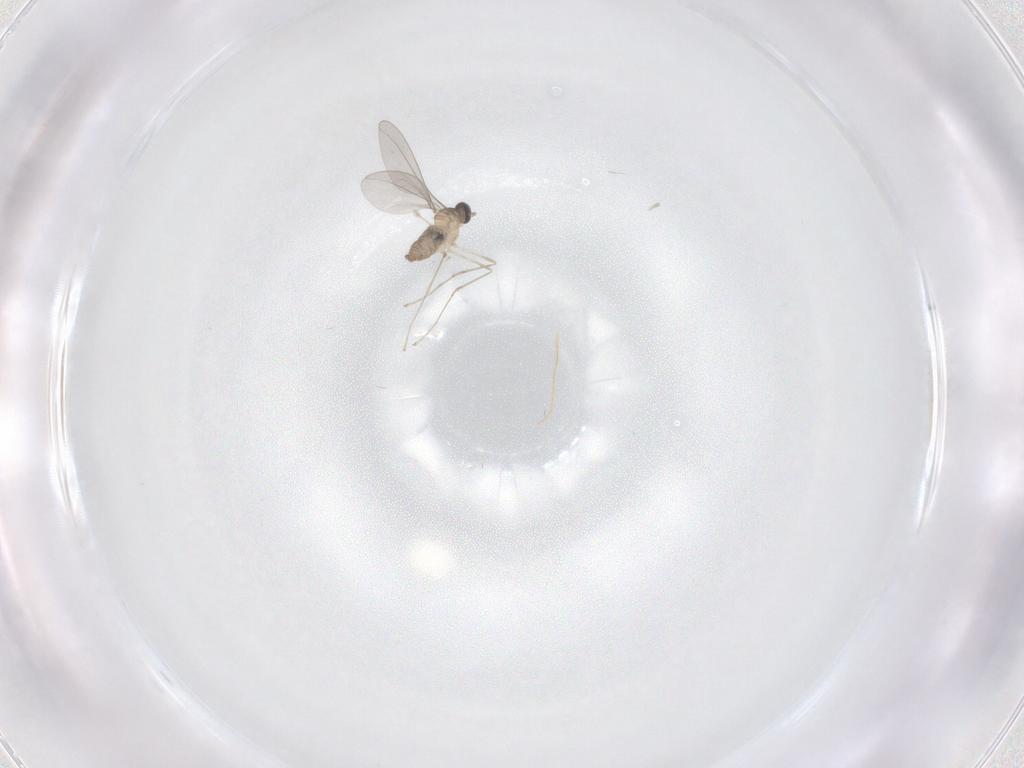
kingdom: Animalia
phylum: Arthropoda
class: Insecta
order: Diptera
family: Cecidomyiidae
